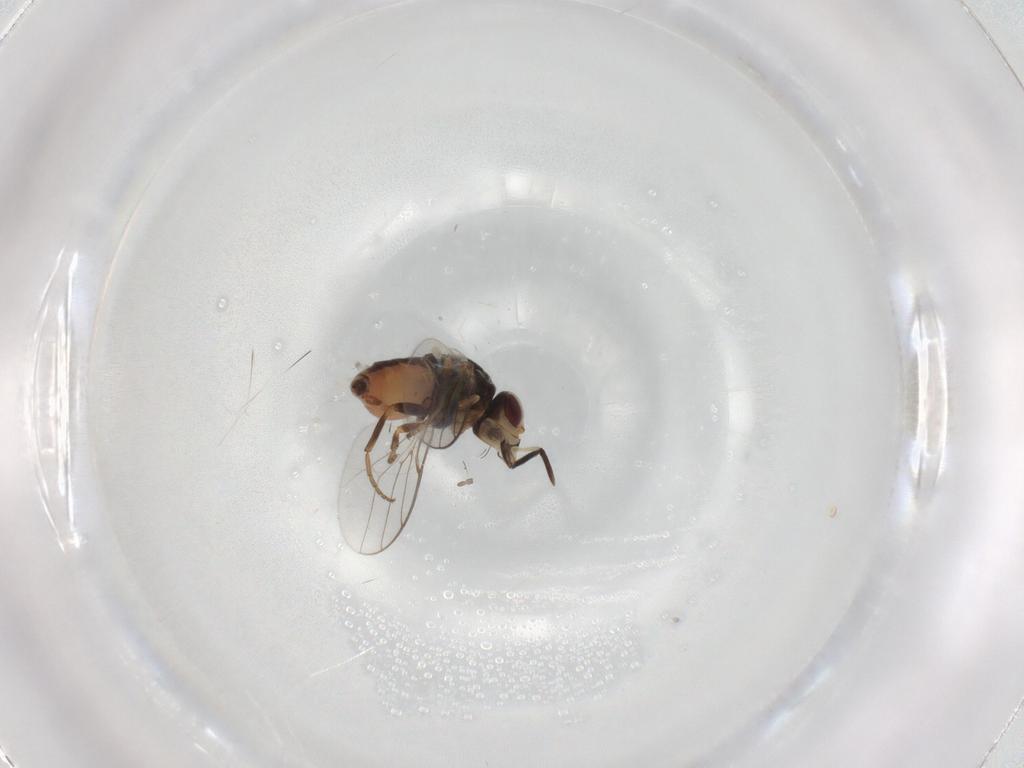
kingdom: Animalia
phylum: Arthropoda
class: Insecta
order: Diptera
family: Chloropidae
